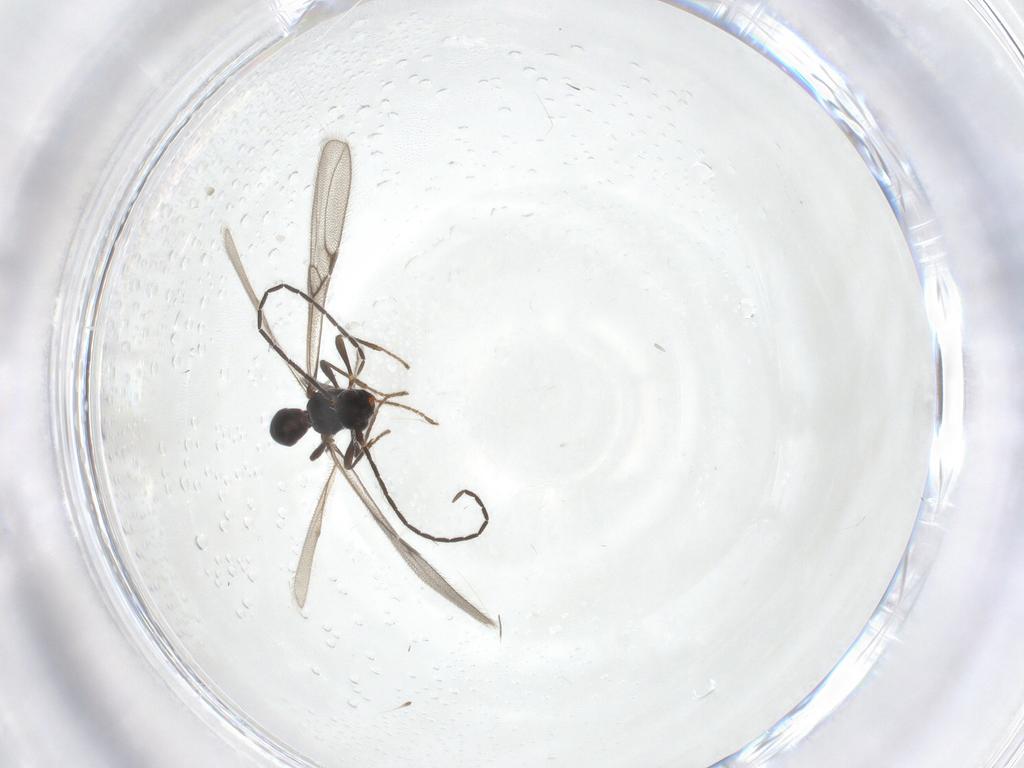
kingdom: Animalia
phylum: Arthropoda
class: Insecta
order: Hymenoptera
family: Braconidae
